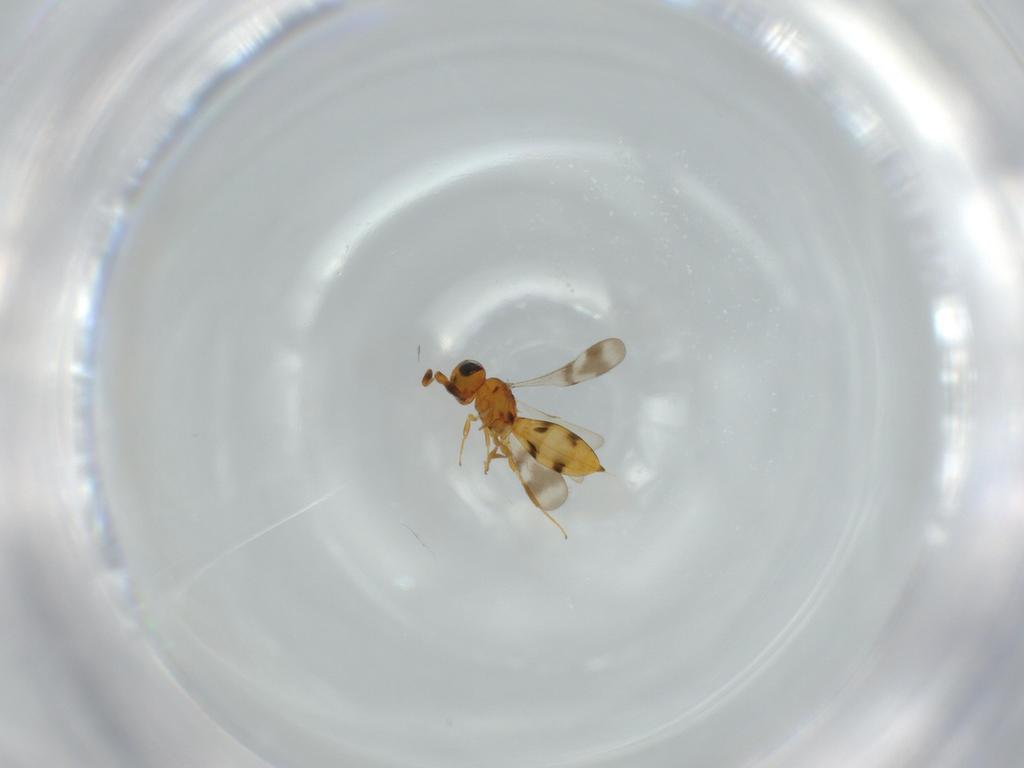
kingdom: Animalia
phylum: Arthropoda
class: Insecta
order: Hymenoptera
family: Scelionidae
